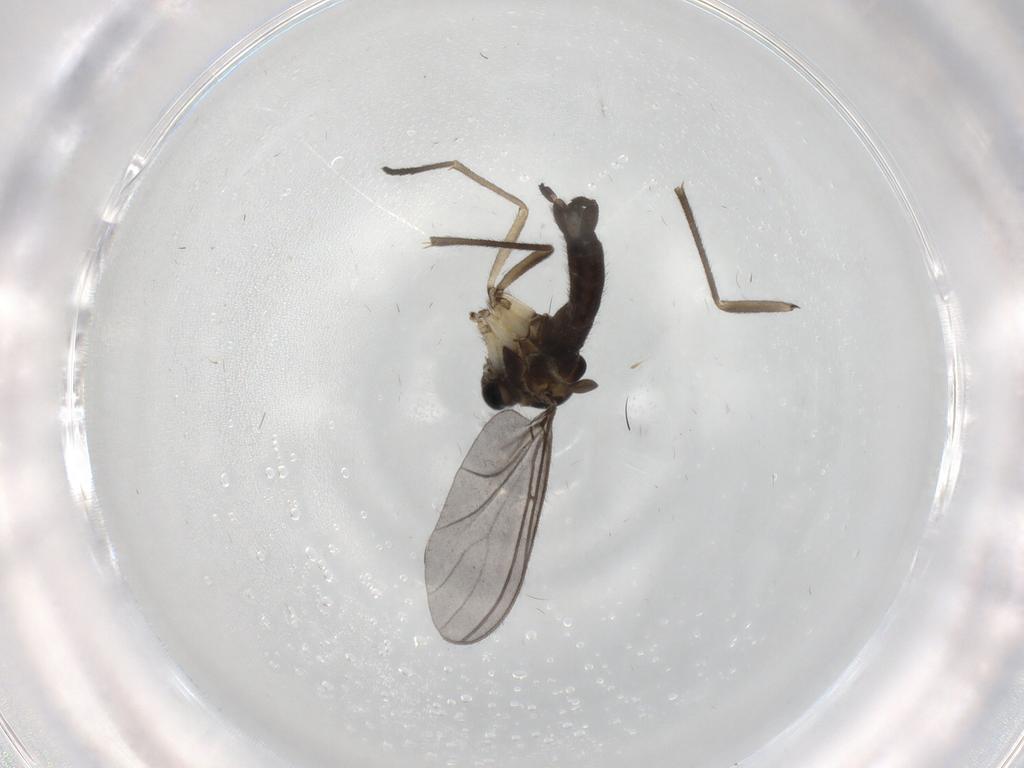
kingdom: Animalia
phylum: Arthropoda
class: Insecta
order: Diptera
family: Sciaridae
